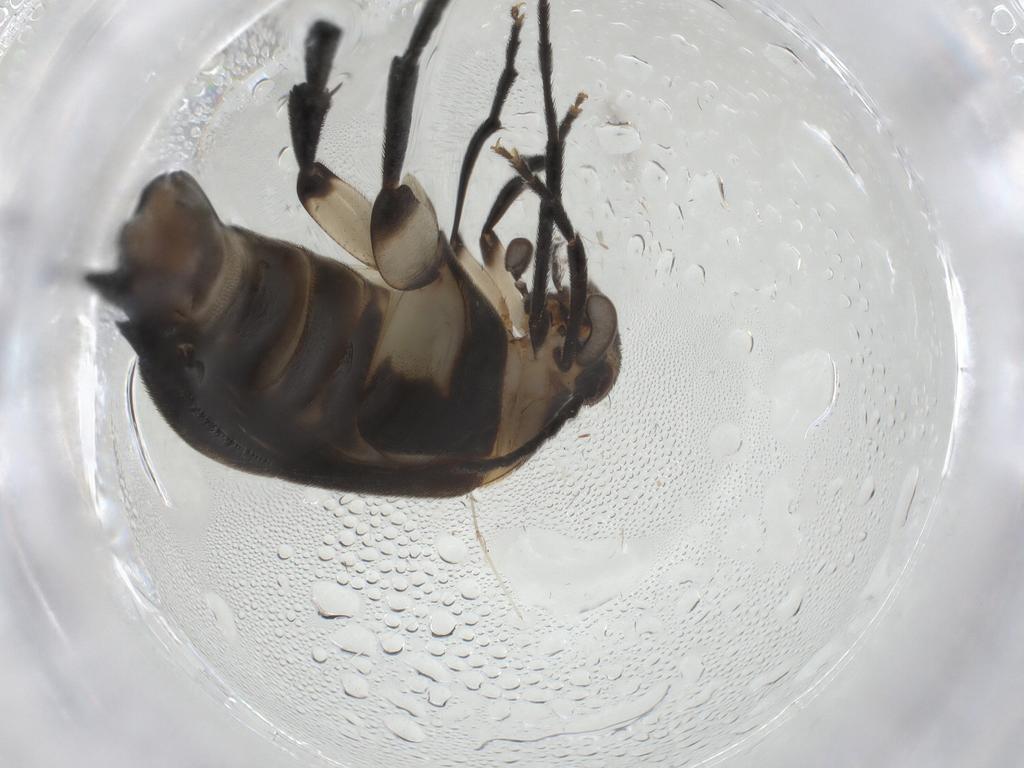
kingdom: Animalia
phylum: Arthropoda
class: Insecta
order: Coleoptera
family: Mordellidae
